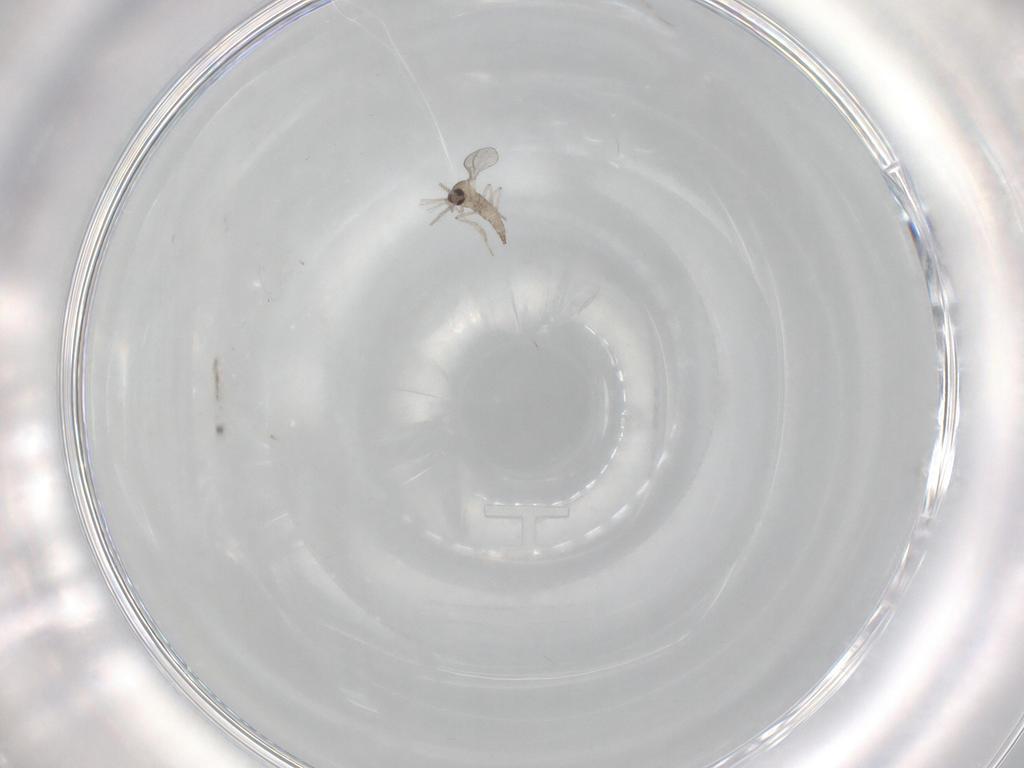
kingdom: Animalia
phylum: Arthropoda
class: Insecta
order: Diptera
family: Cecidomyiidae
